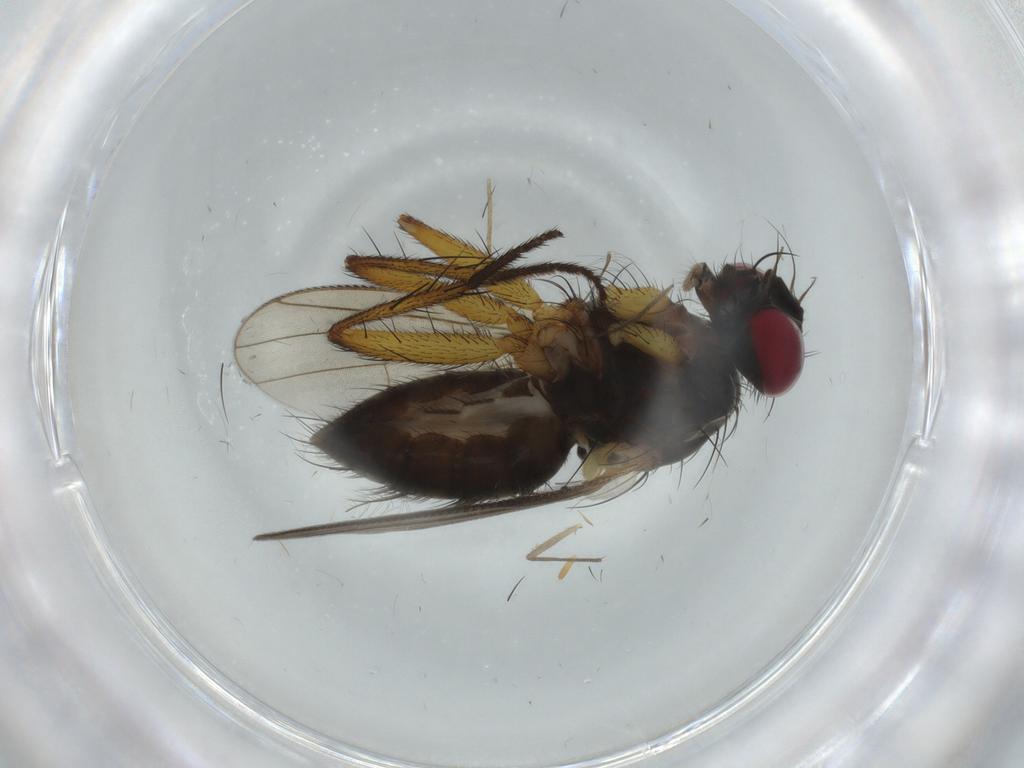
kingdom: Animalia
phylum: Arthropoda
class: Insecta
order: Diptera
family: Muscidae
